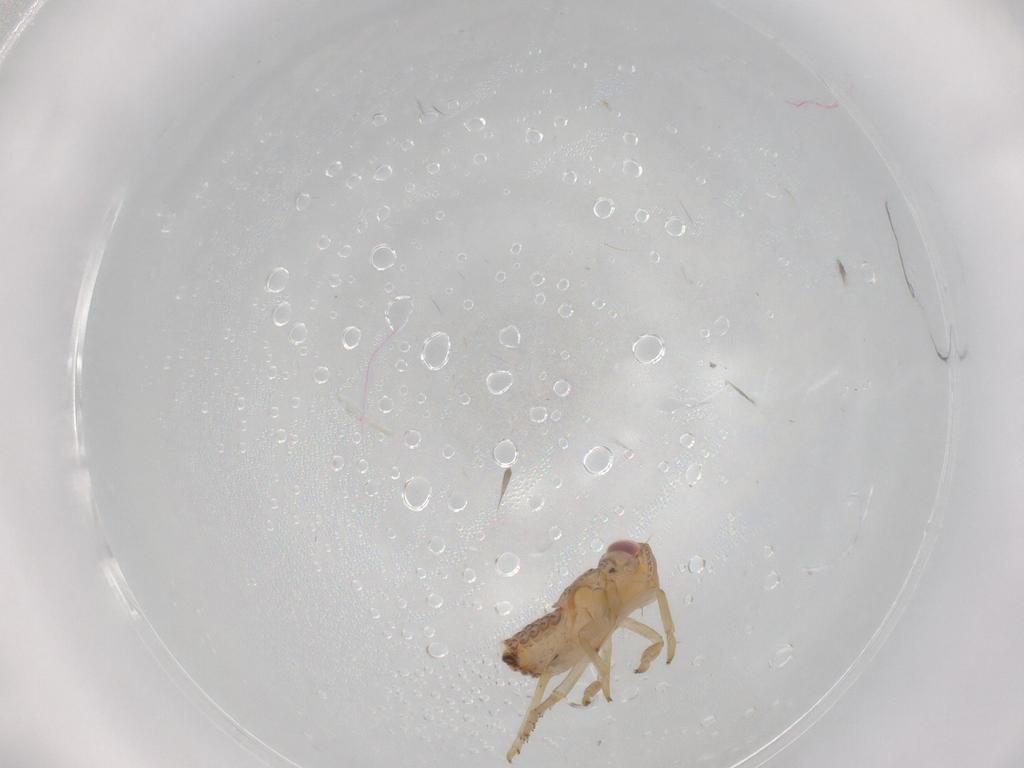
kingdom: Animalia
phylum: Arthropoda
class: Insecta
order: Hemiptera
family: Issidae
